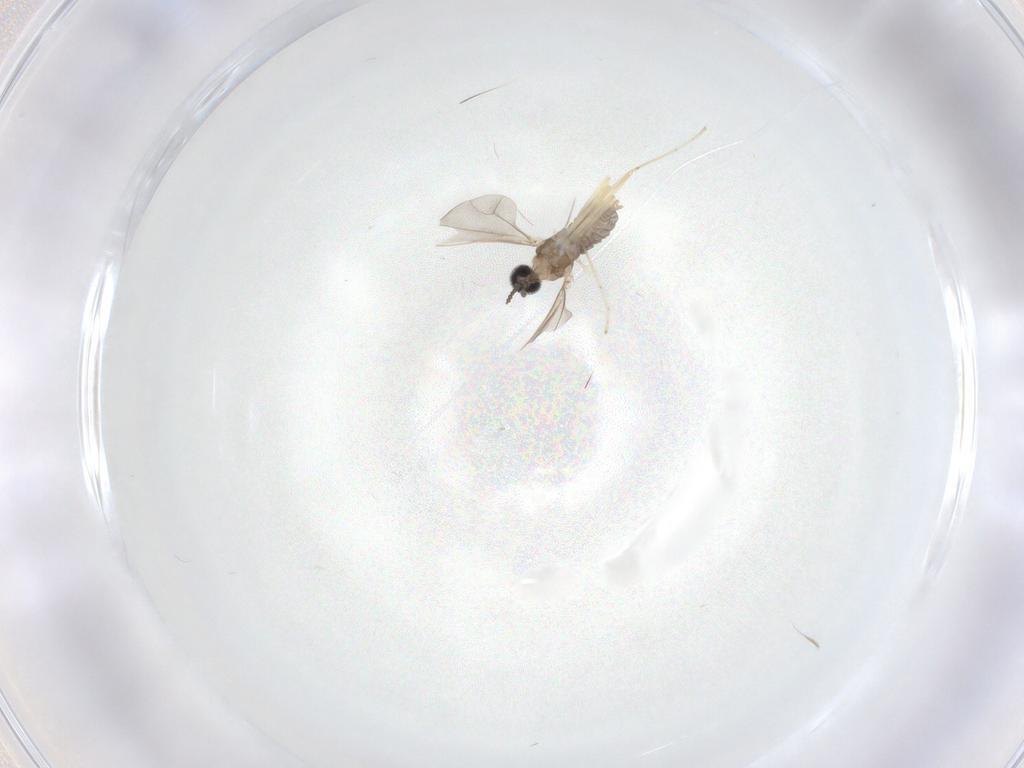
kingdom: Animalia
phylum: Arthropoda
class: Insecta
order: Diptera
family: Cecidomyiidae
